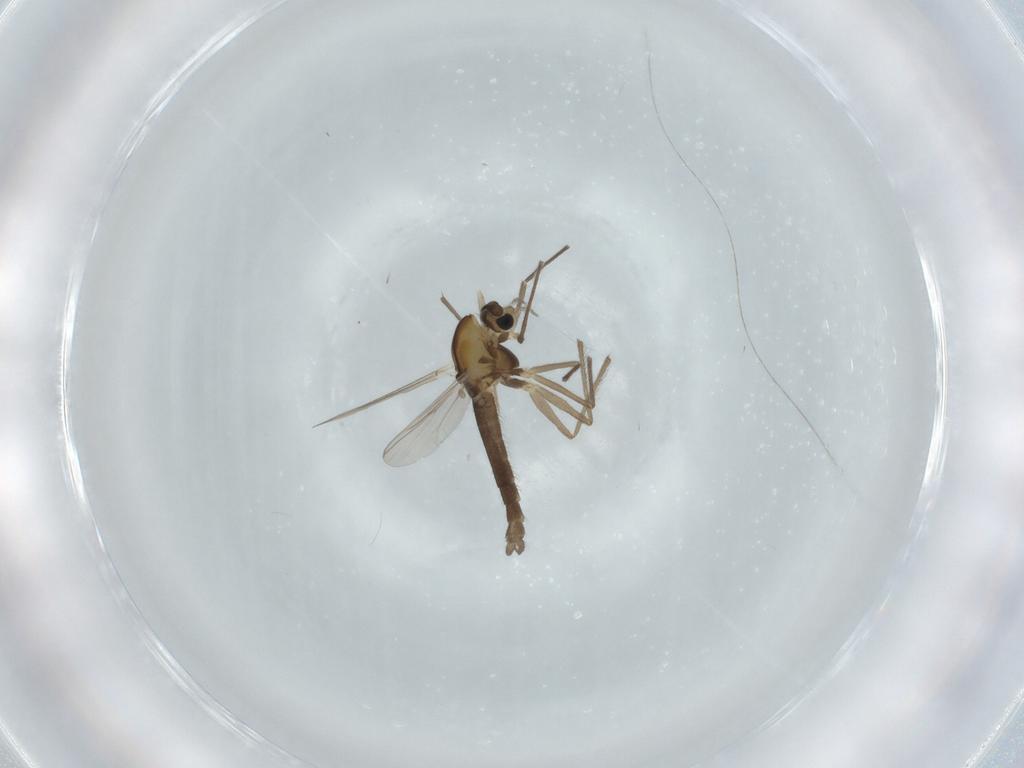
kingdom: Animalia
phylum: Arthropoda
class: Insecta
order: Diptera
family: Chironomidae
